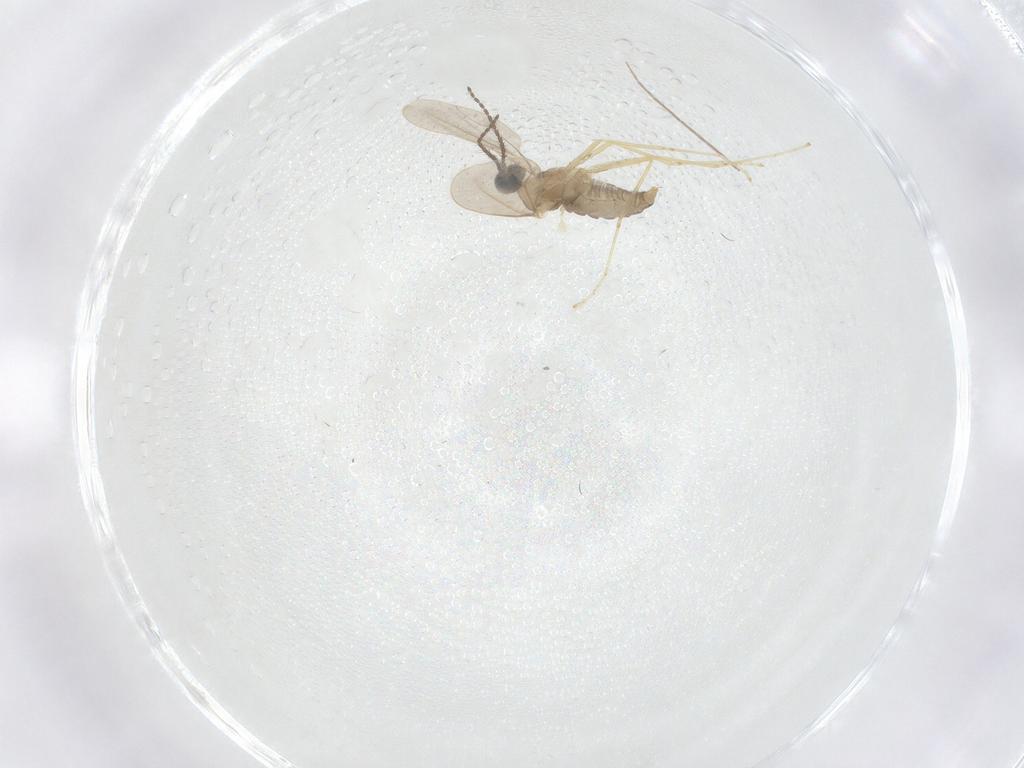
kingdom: Animalia
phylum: Arthropoda
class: Insecta
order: Diptera
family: Cecidomyiidae
